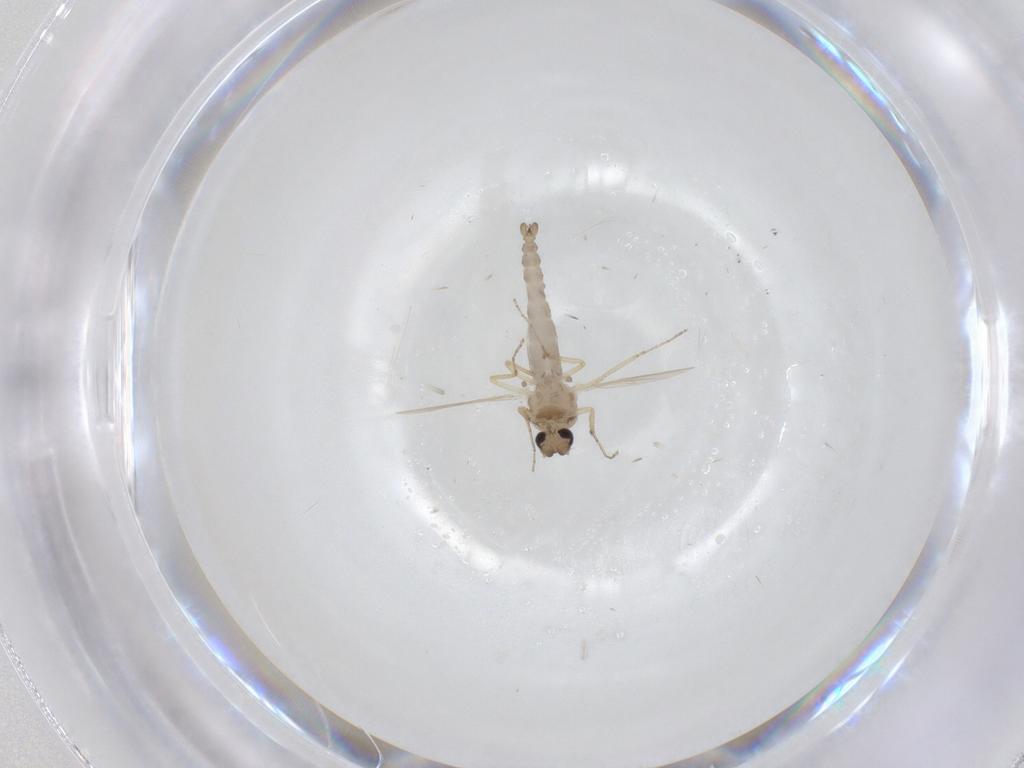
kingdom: Animalia
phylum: Arthropoda
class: Insecta
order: Diptera
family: Ceratopogonidae
